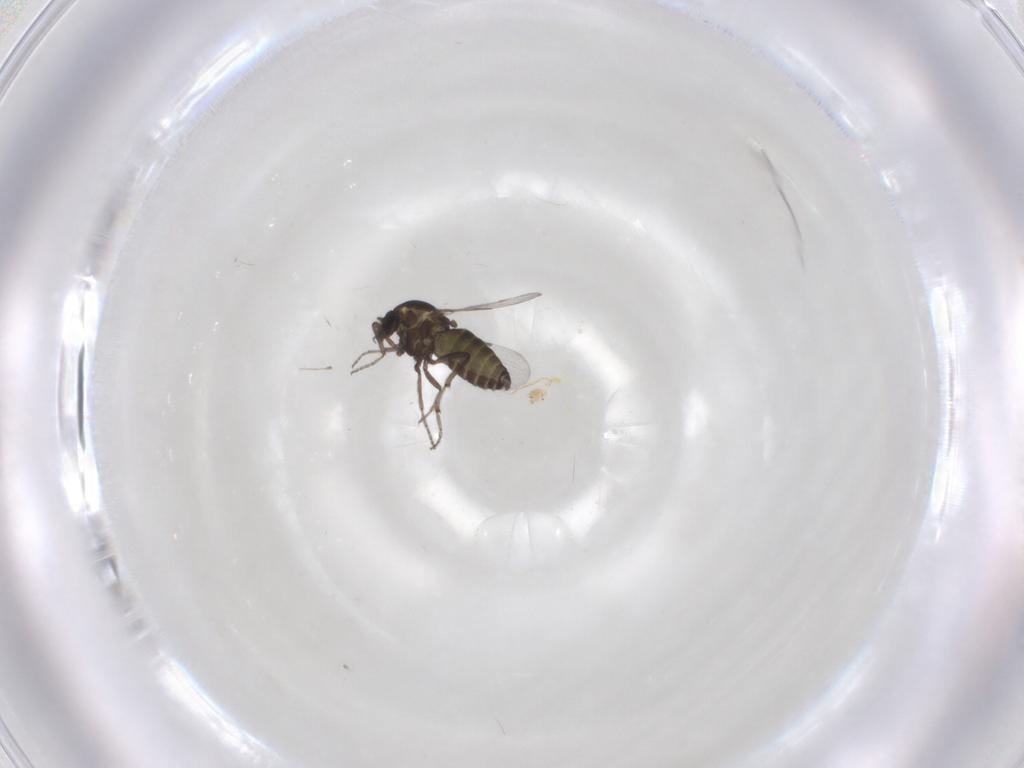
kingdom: Animalia
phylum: Arthropoda
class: Insecta
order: Diptera
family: Ceratopogonidae
